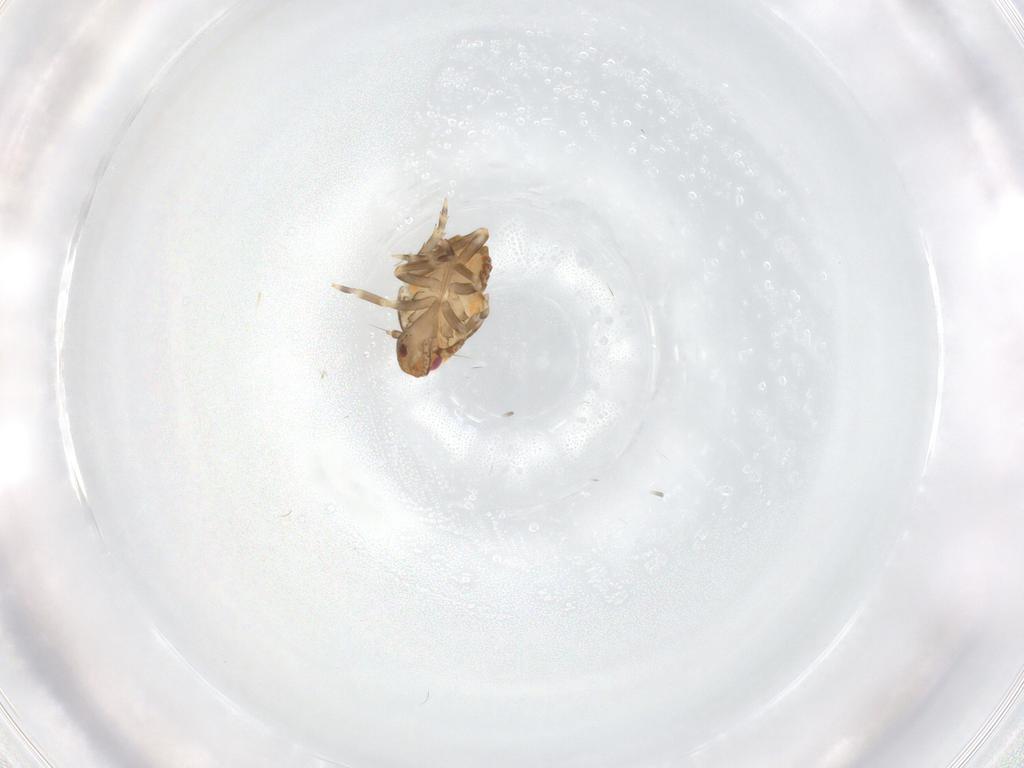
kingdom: Animalia
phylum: Arthropoda
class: Insecta
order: Hemiptera
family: Flatidae
